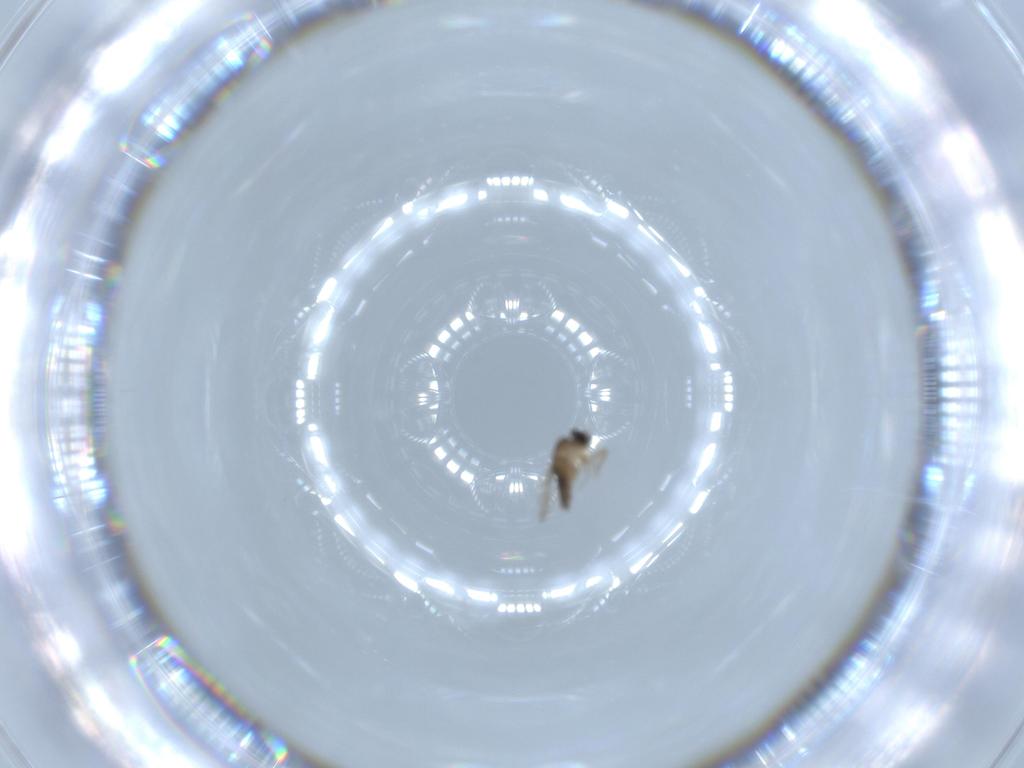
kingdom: Animalia
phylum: Arthropoda
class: Insecta
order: Diptera
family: Phoridae
